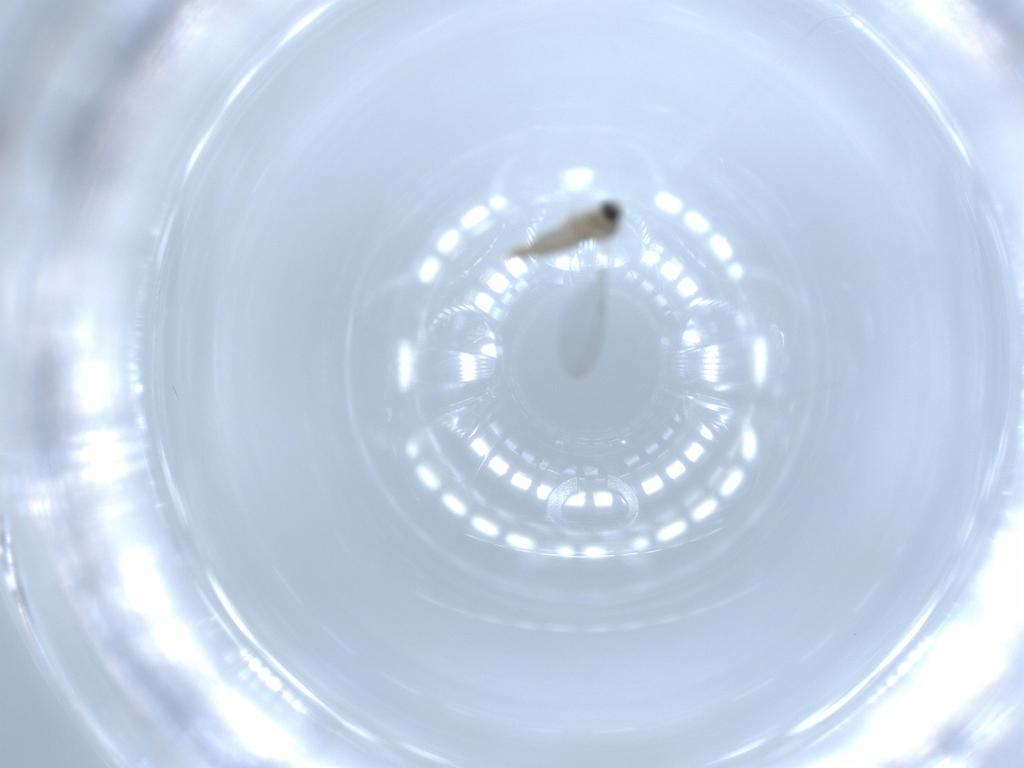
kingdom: Animalia
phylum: Arthropoda
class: Insecta
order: Diptera
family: Cecidomyiidae
